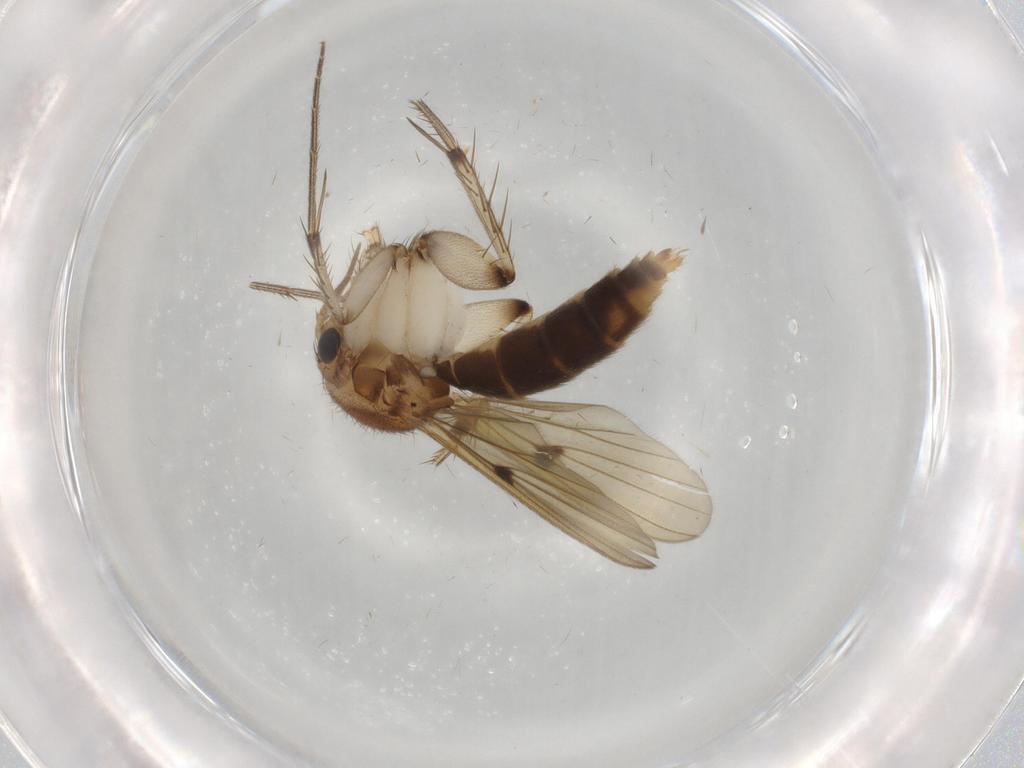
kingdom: Animalia
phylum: Arthropoda
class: Insecta
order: Diptera
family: Mycetophilidae
